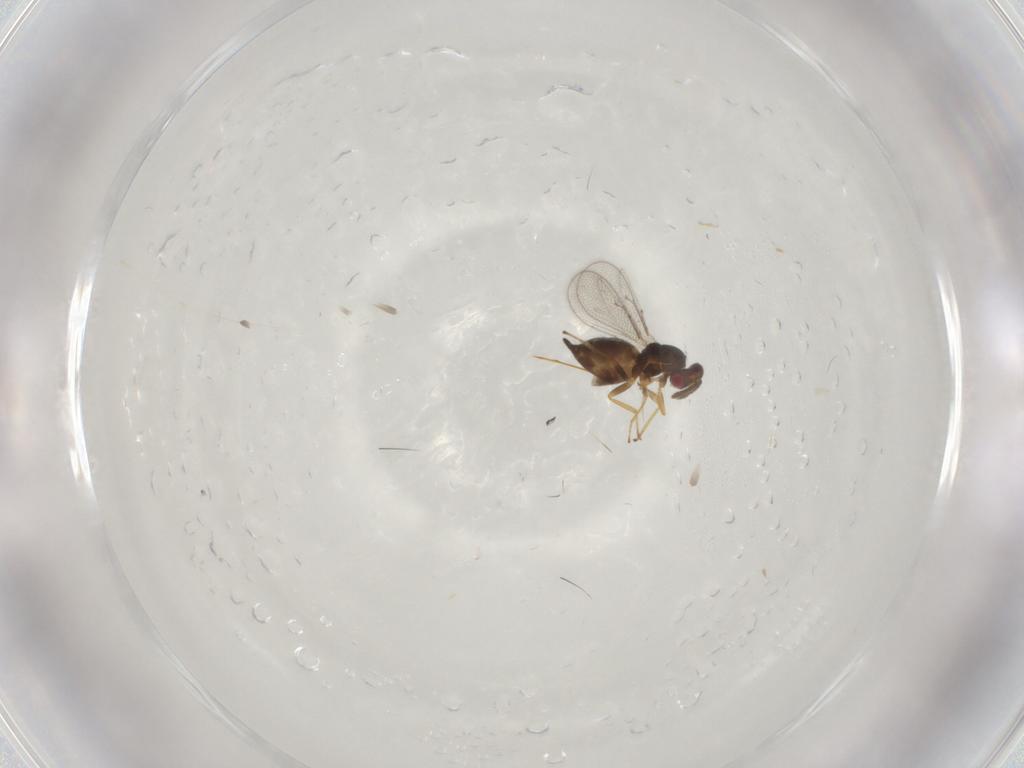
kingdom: Animalia
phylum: Arthropoda
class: Insecta
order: Hymenoptera
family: Eulophidae
